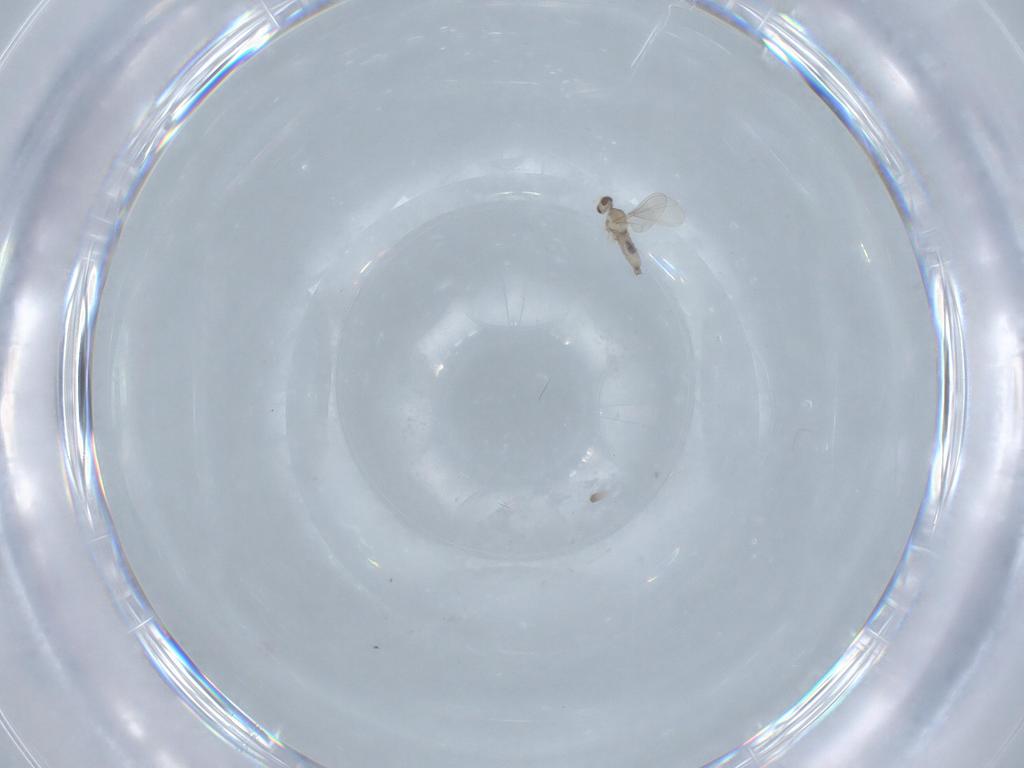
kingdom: Animalia
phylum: Arthropoda
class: Insecta
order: Diptera
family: Cecidomyiidae
